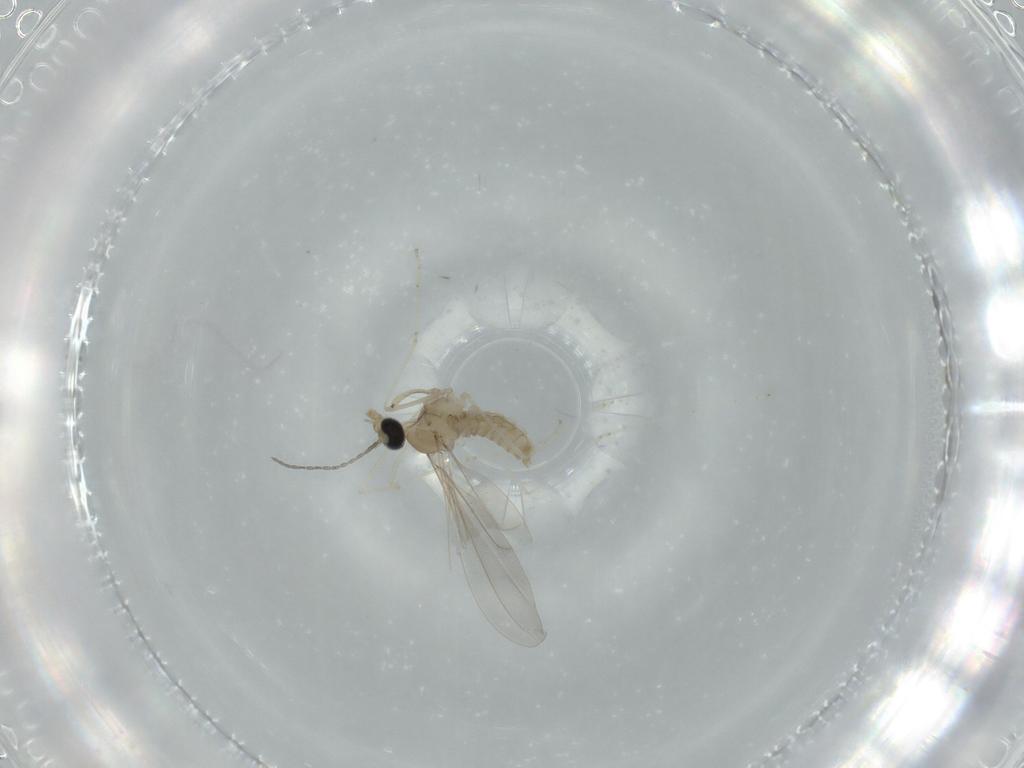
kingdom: Animalia
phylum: Arthropoda
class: Insecta
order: Diptera
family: Cecidomyiidae
